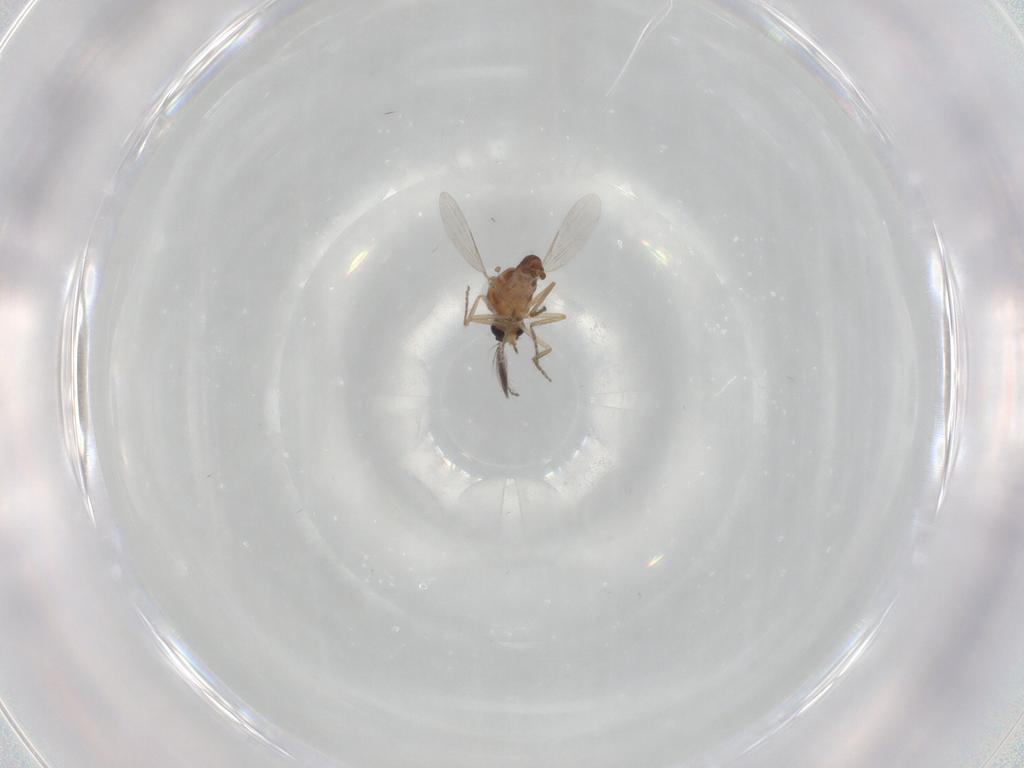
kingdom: Animalia
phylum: Arthropoda
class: Insecta
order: Diptera
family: Ceratopogonidae
